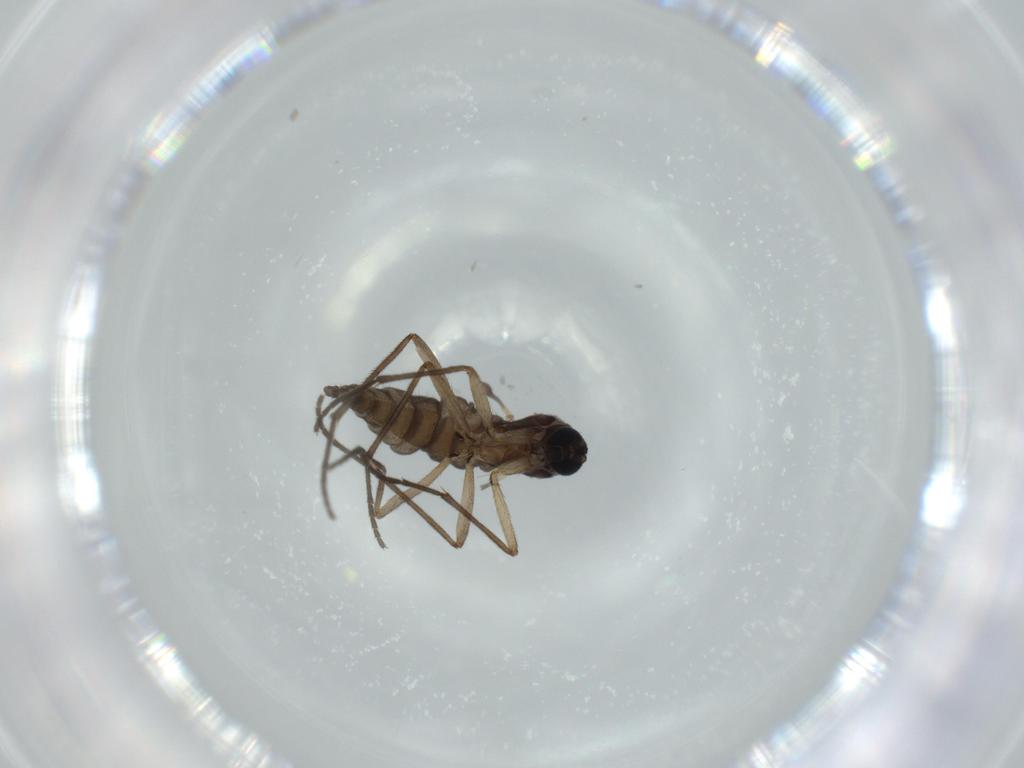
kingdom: Animalia
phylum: Arthropoda
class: Insecta
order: Diptera
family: Sciaridae
